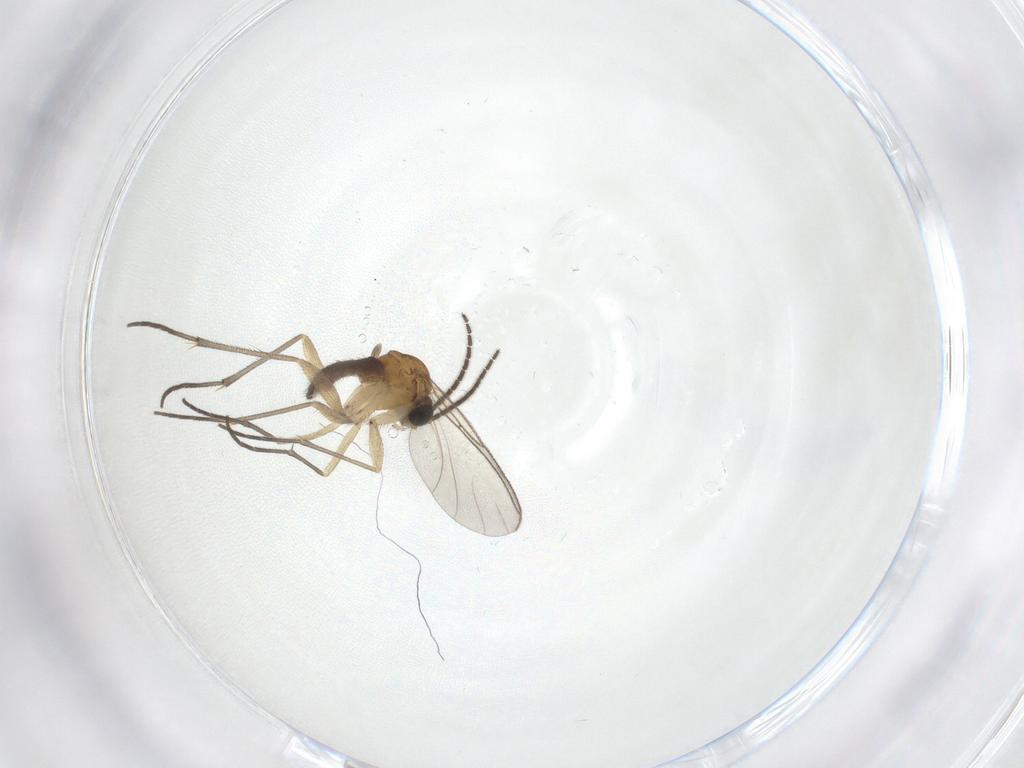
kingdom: Animalia
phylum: Arthropoda
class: Insecta
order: Diptera
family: Sciaridae
